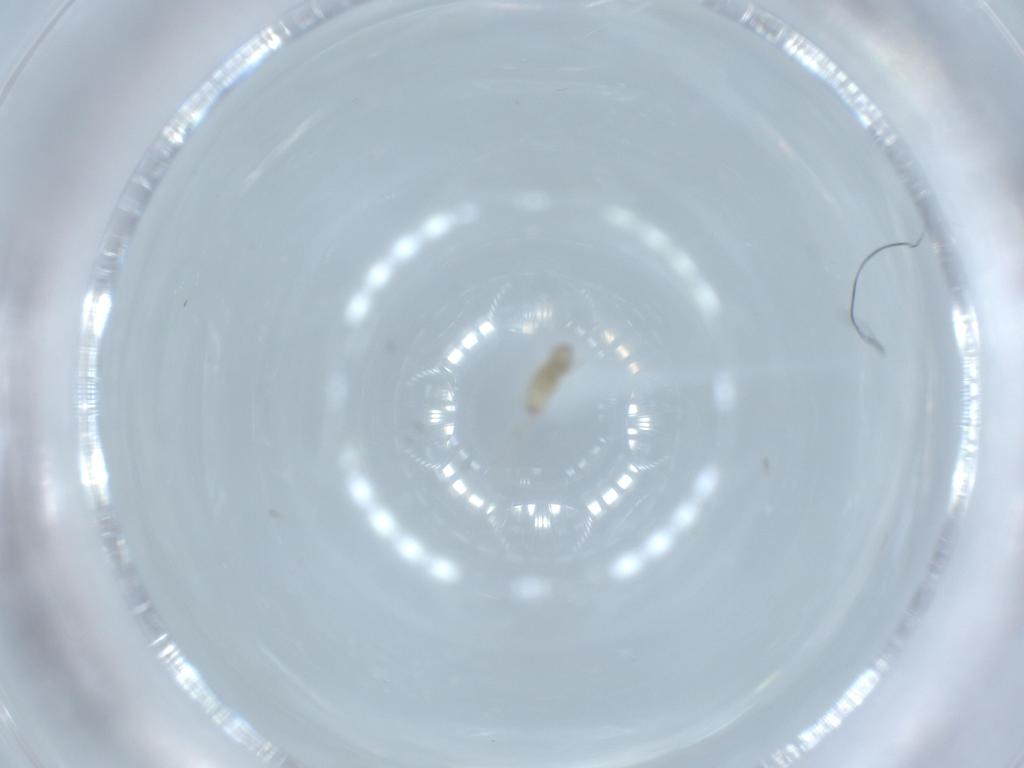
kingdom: Animalia
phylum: Arthropoda
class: Insecta
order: Diptera
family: Cecidomyiidae
